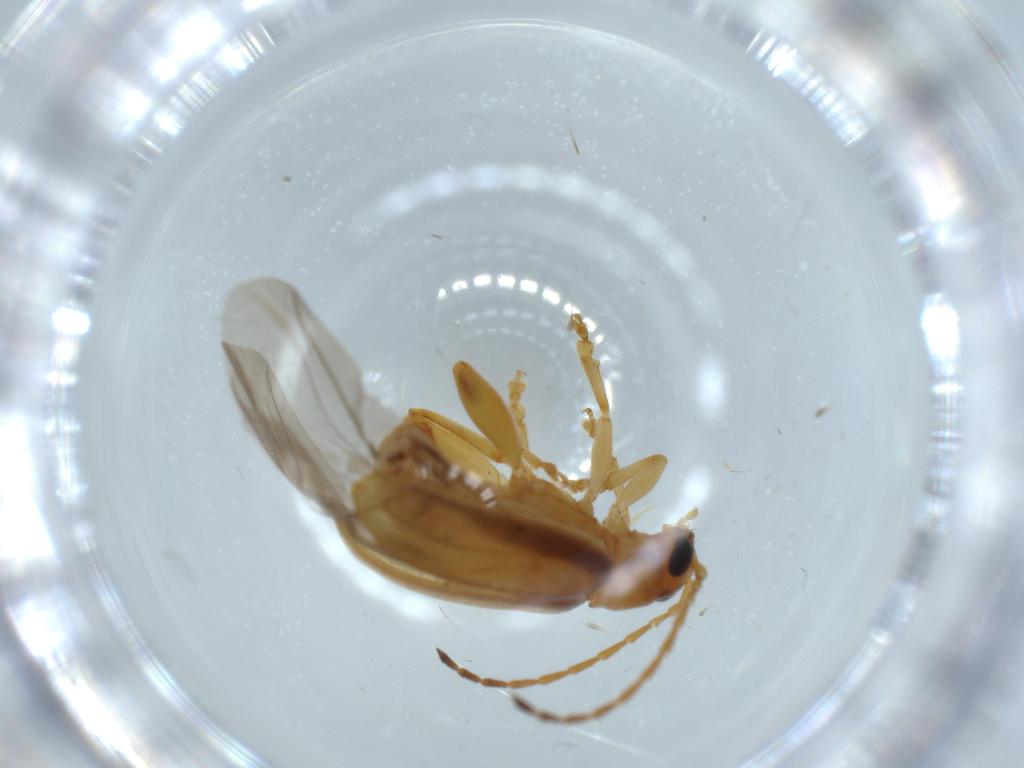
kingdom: Animalia
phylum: Arthropoda
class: Insecta
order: Coleoptera
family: Chrysomelidae
